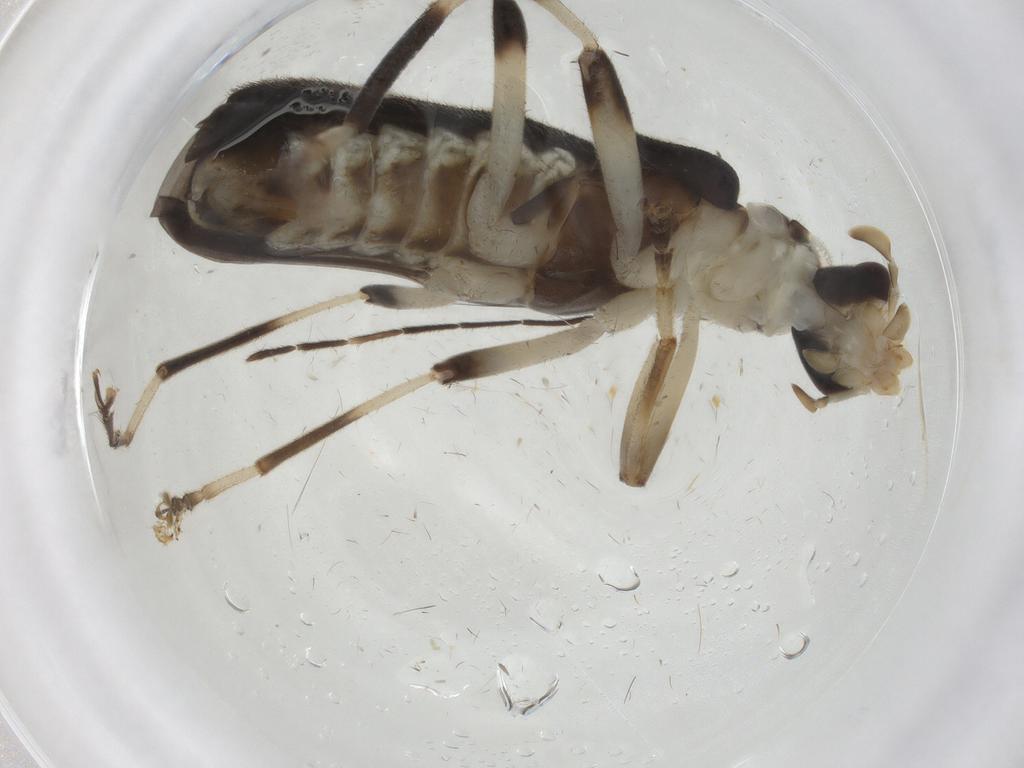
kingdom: Animalia
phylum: Arthropoda
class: Insecta
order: Coleoptera
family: Cantharidae
